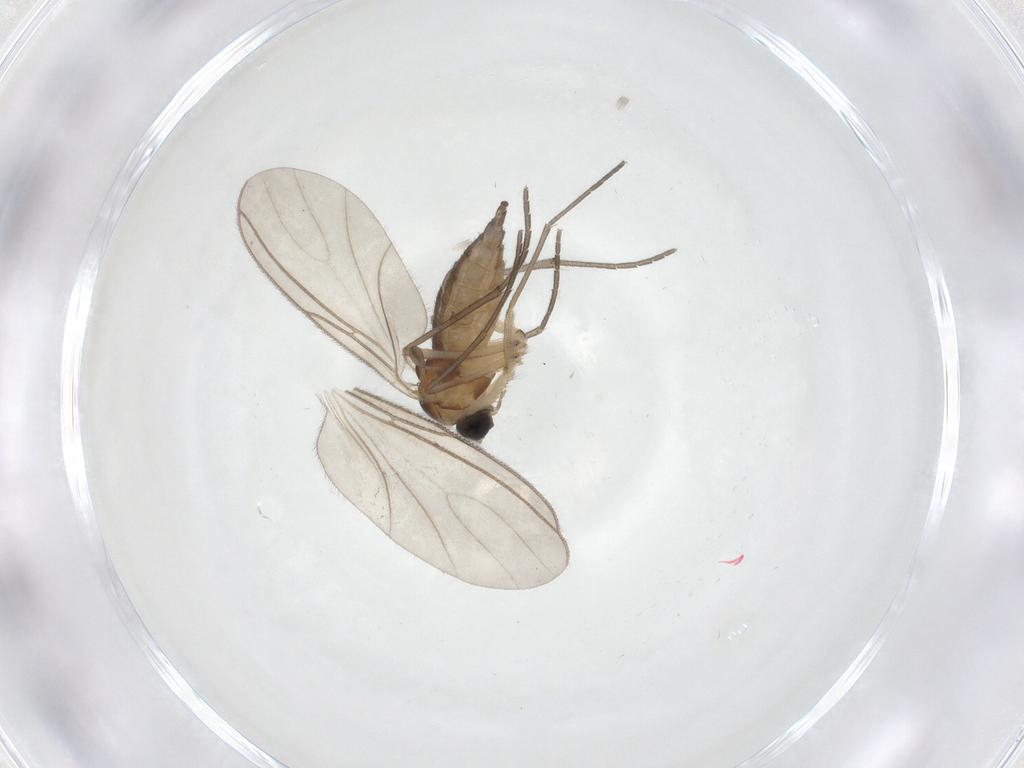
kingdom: Animalia
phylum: Arthropoda
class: Insecta
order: Diptera
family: Sciaridae
